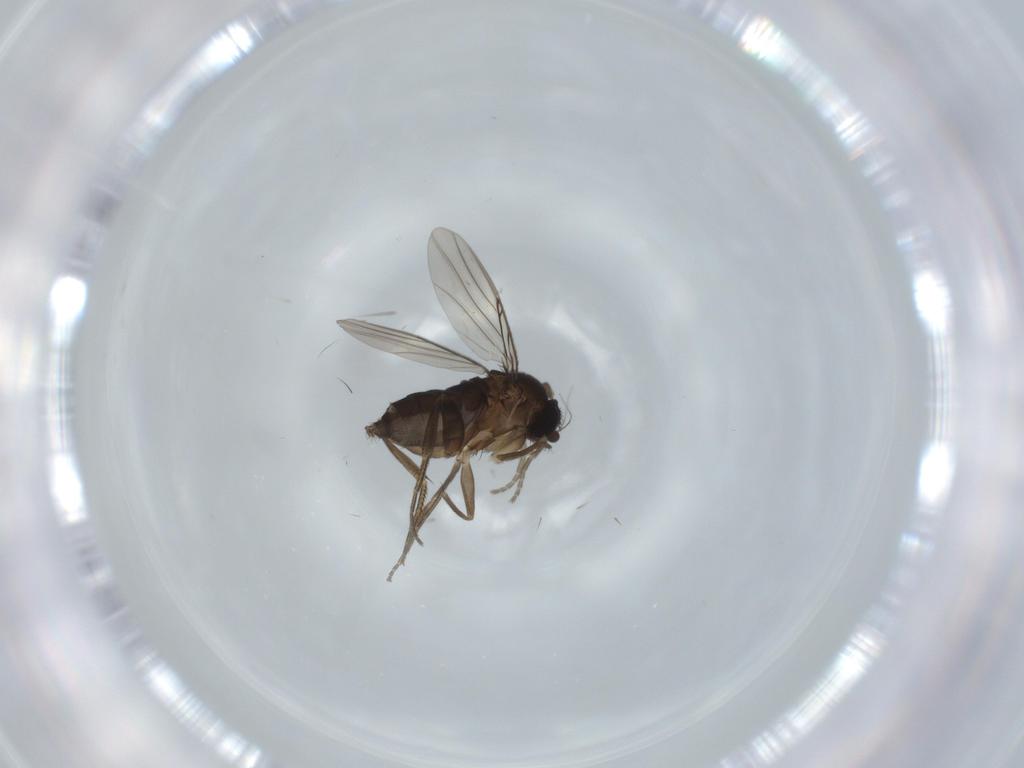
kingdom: Animalia
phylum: Arthropoda
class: Insecta
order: Diptera
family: Phoridae
